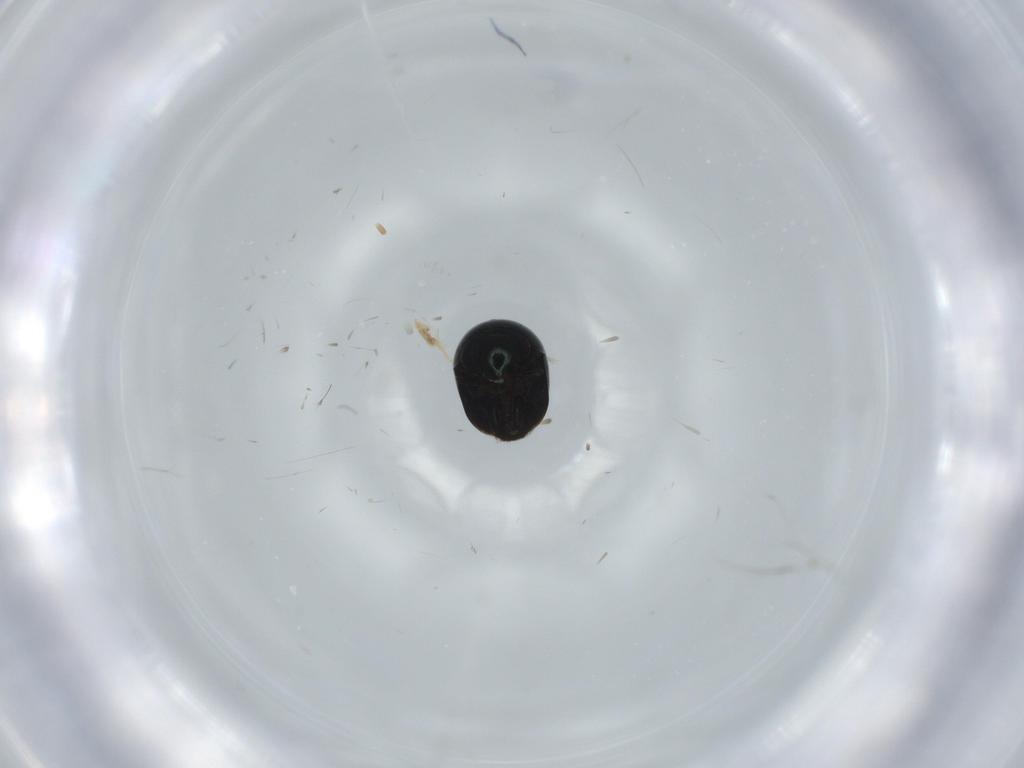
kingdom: Animalia
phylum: Arthropoda
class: Insecta
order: Coleoptera
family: Cybocephalidae
